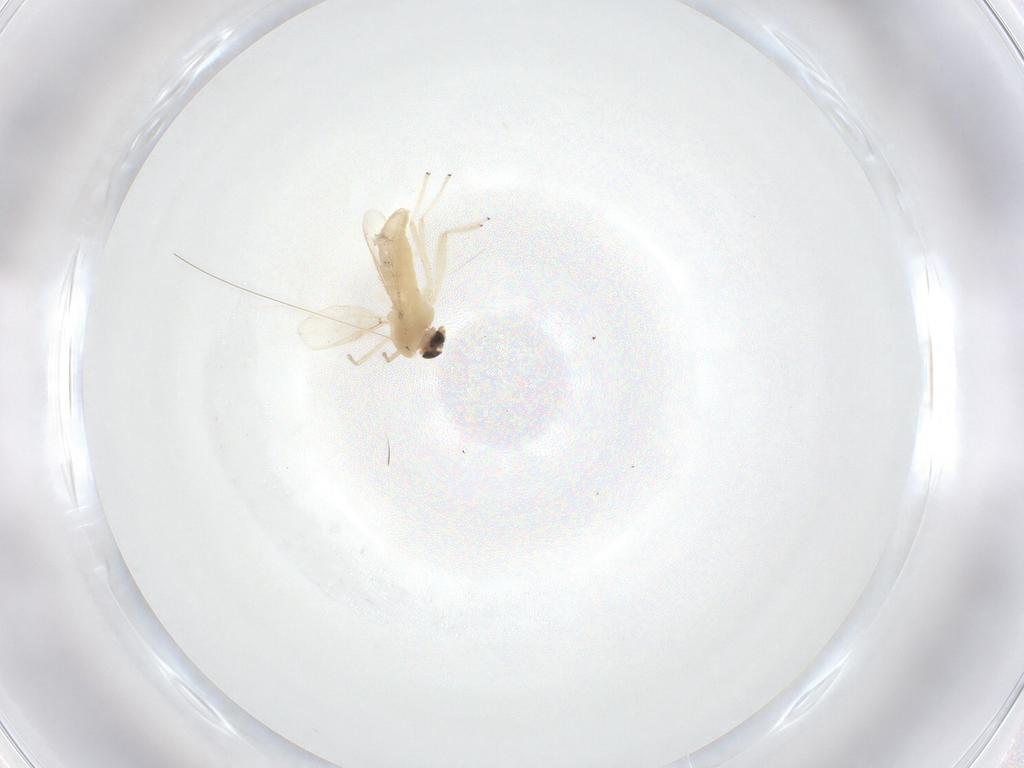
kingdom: Animalia
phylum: Arthropoda
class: Insecta
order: Diptera
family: Chironomidae
